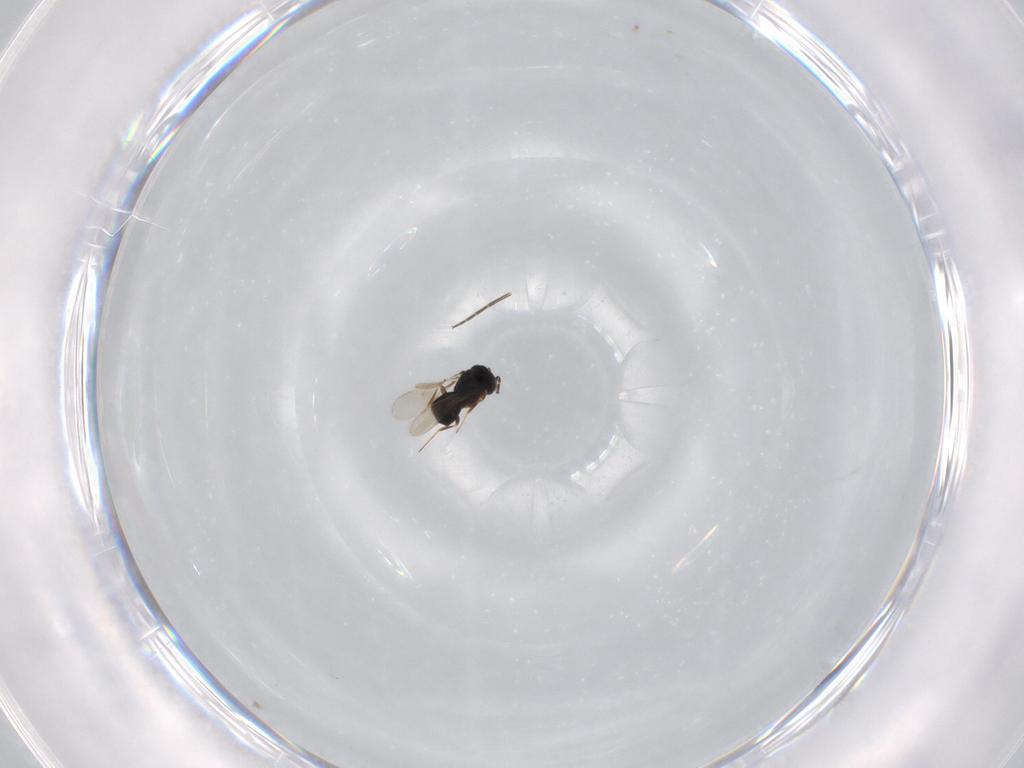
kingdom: Animalia
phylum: Arthropoda
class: Insecta
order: Hymenoptera
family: Scelionidae
